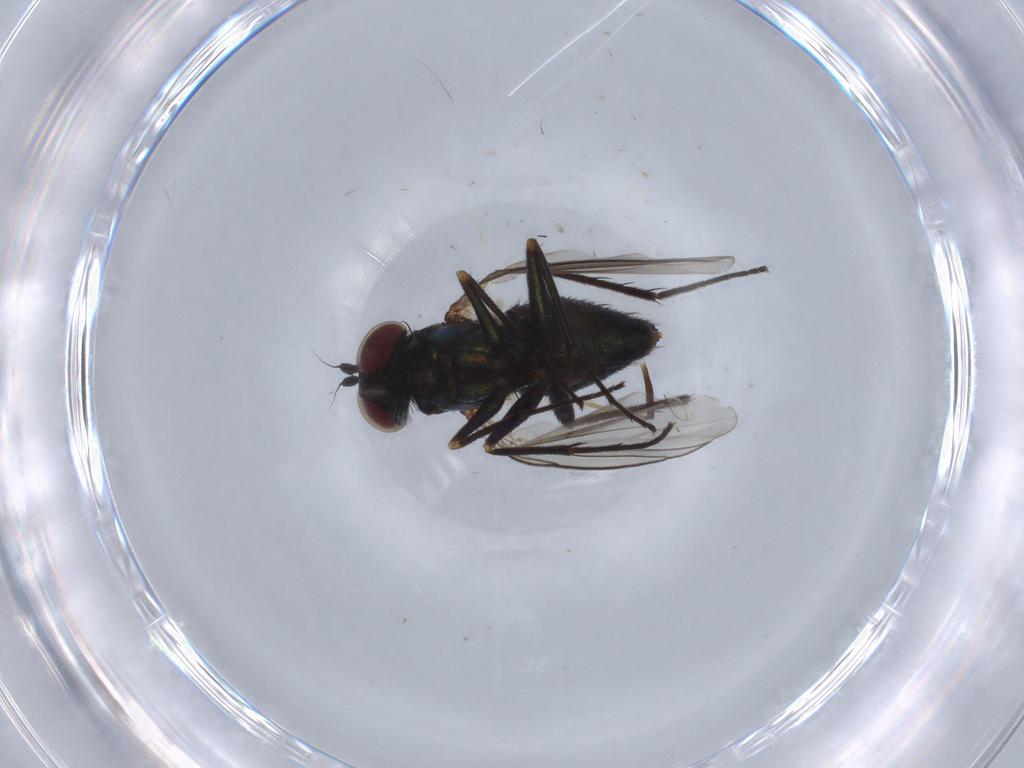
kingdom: Animalia
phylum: Arthropoda
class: Insecta
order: Diptera
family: Dolichopodidae
